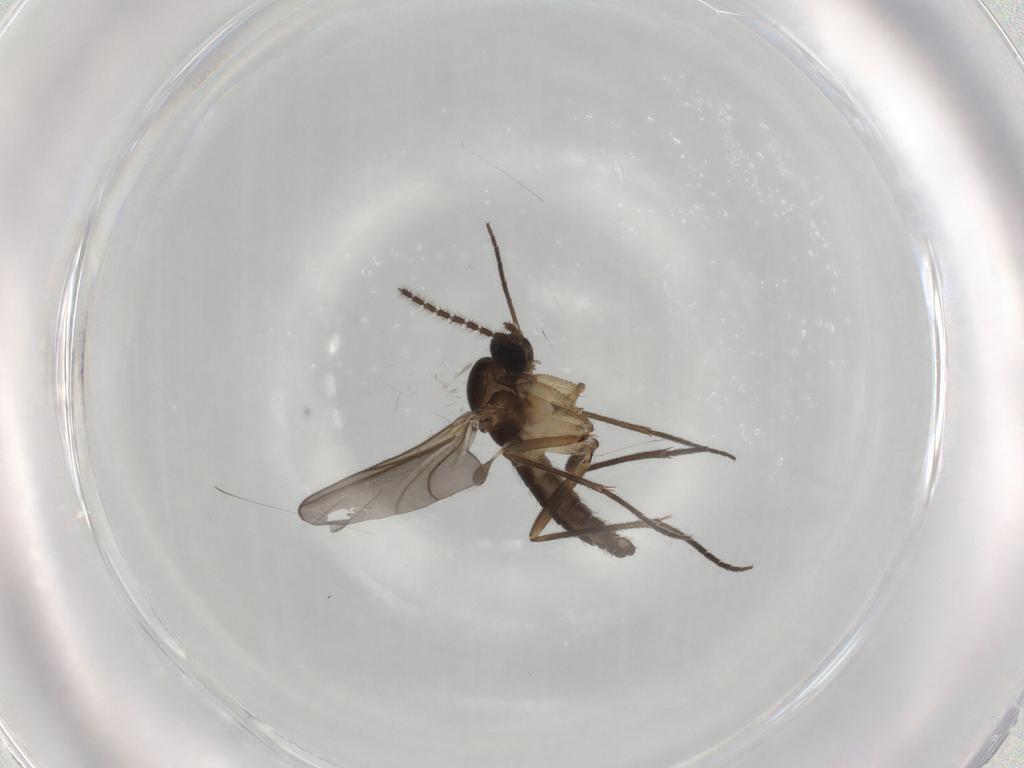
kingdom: Animalia
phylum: Arthropoda
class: Insecta
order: Diptera
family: Sciaridae
